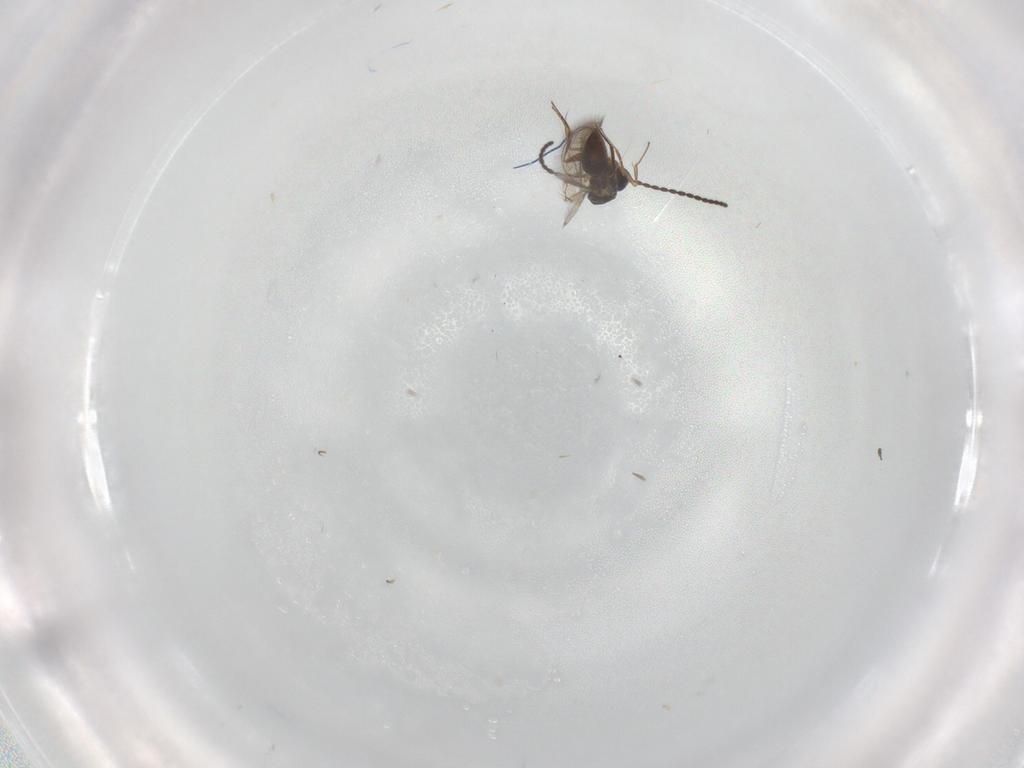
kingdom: Animalia
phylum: Arthropoda
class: Insecta
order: Hymenoptera
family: Figitidae
